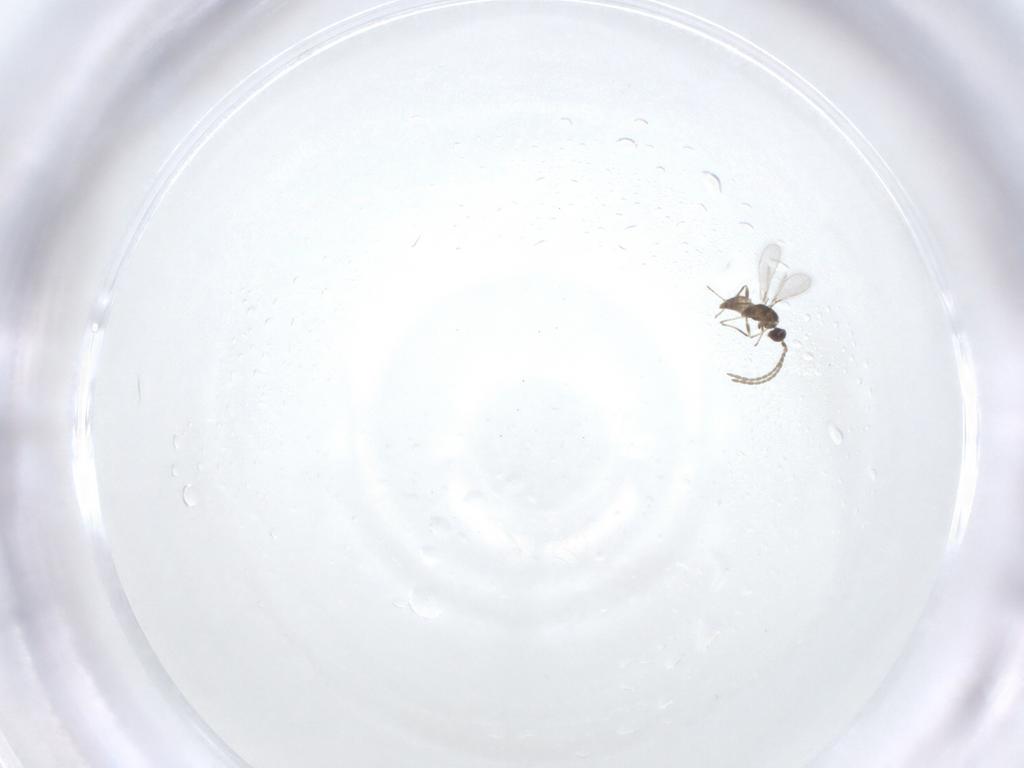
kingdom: Animalia
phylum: Arthropoda
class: Insecta
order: Hymenoptera
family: Mymaridae
